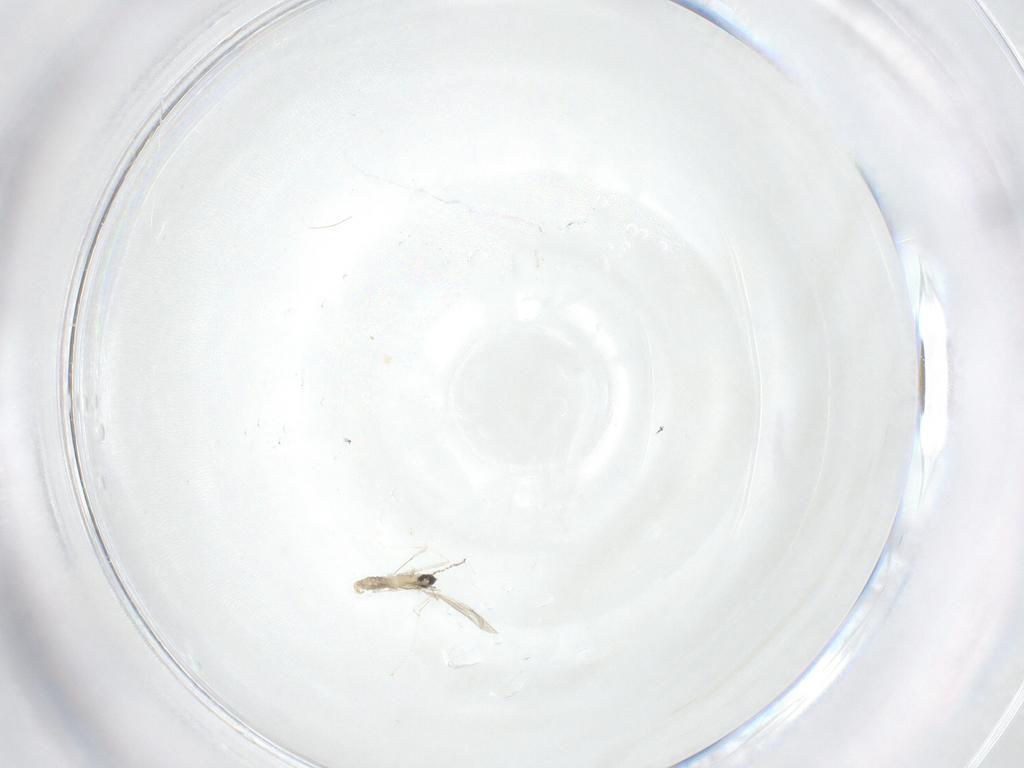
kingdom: Animalia
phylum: Arthropoda
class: Insecta
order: Diptera
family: Cecidomyiidae
